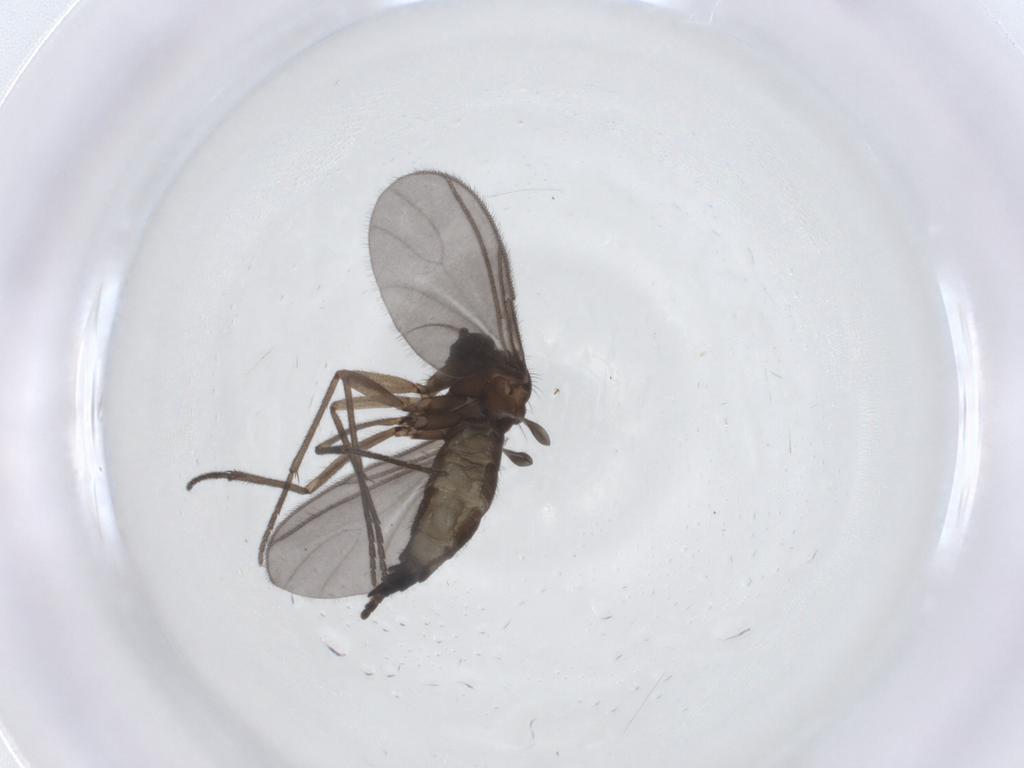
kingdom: Animalia
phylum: Arthropoda
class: Insecta
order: Diptera
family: Sciaridae
